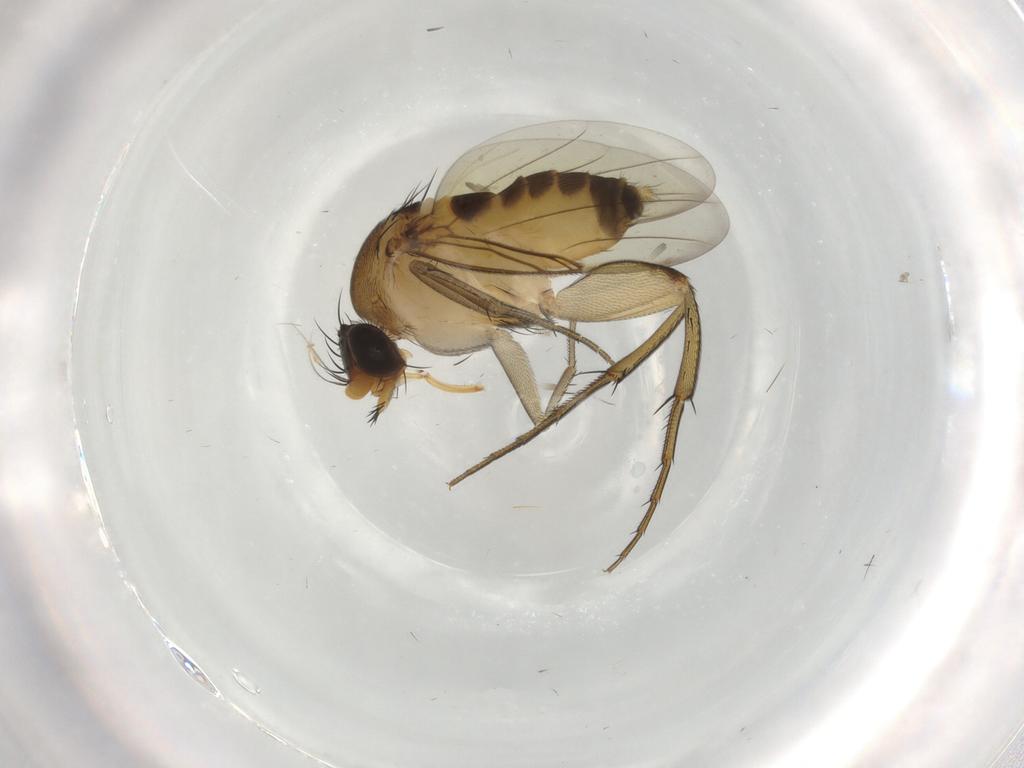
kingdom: Animalia
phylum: Arthropoda
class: Insecta
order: Diptera
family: Phoridae
